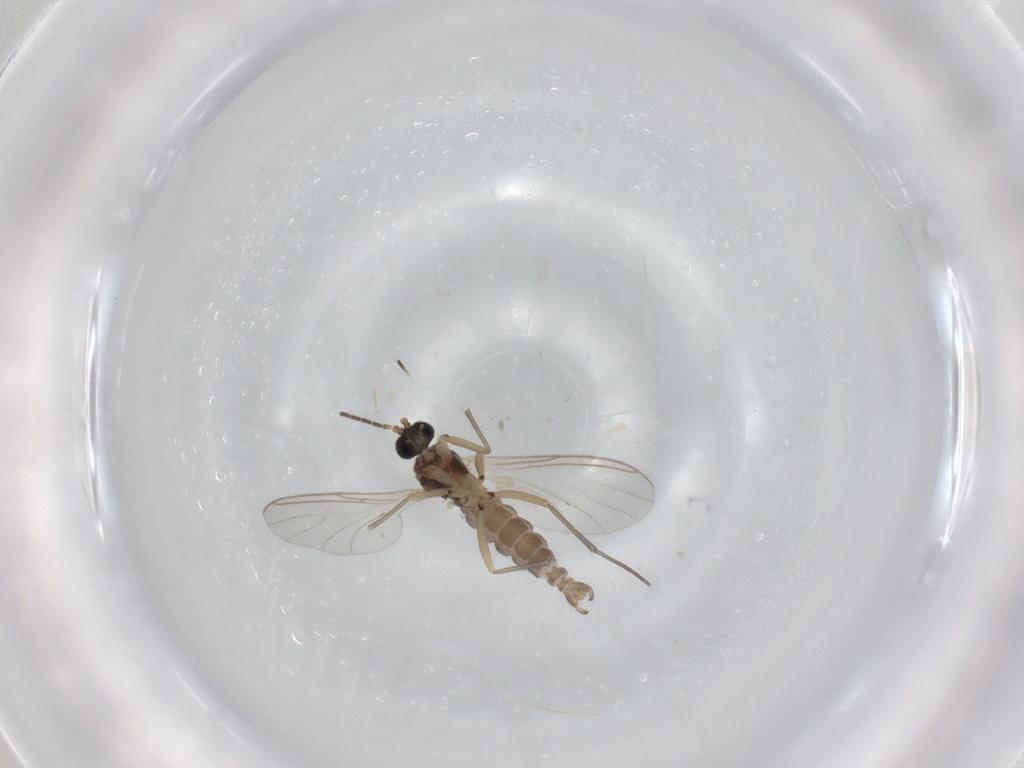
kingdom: Animalia
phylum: Arthropoda
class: Insecta
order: Diptera
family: Sciaridae
